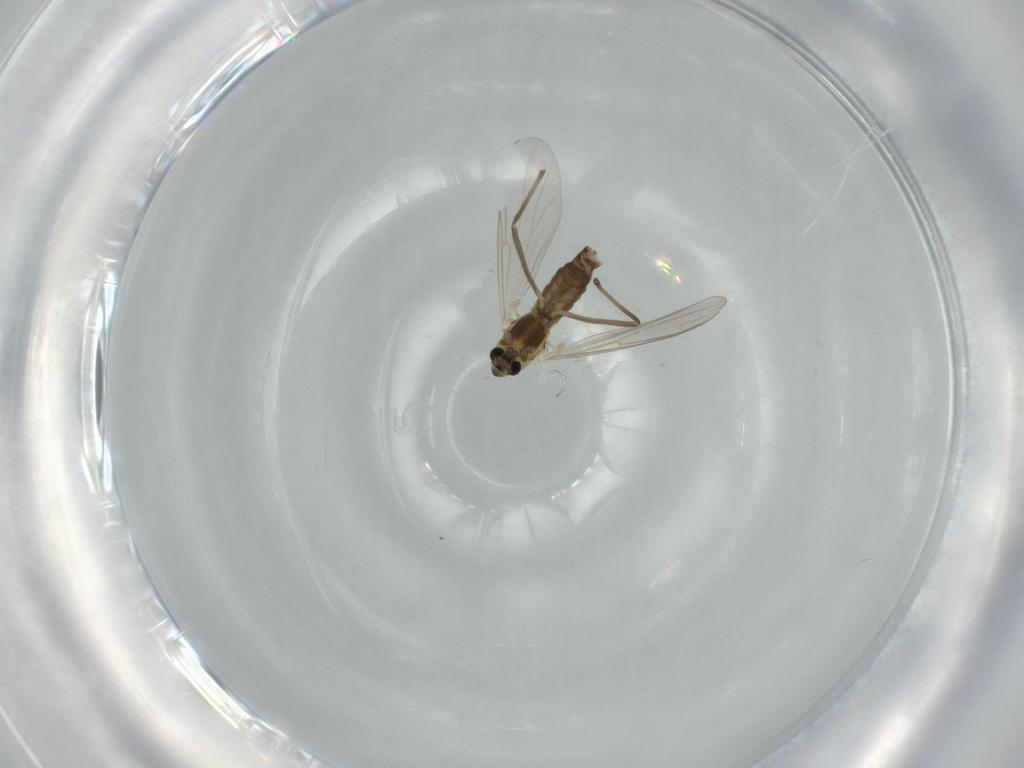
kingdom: Animalia
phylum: Arthropoda
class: Insecta
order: Diptera
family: Chironomidae
